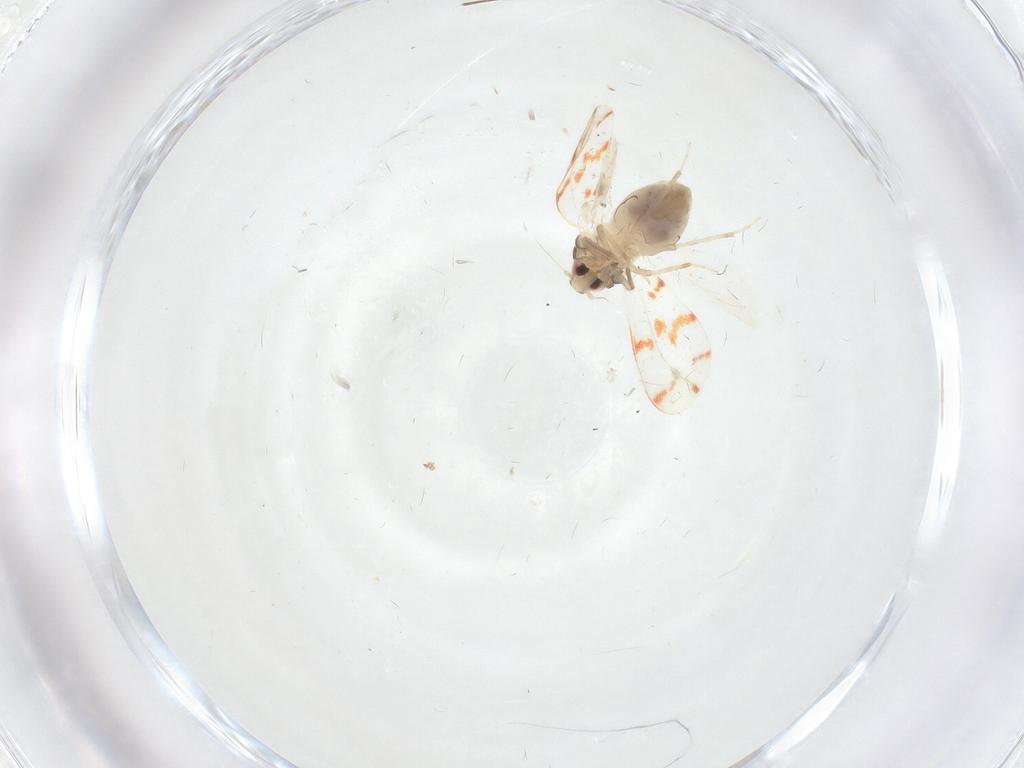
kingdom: Animalia
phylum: Arthropoda
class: Insecta
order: Hemiptera
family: Aleyrodidae
